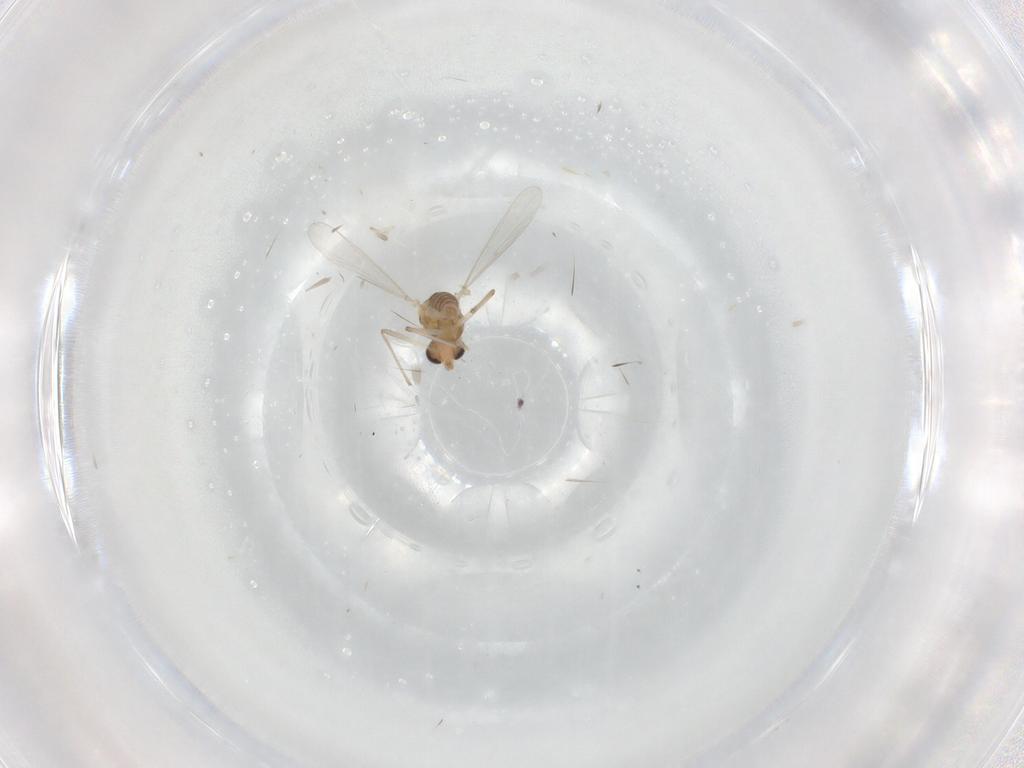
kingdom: Animalia
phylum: Arthropoda
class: Insecta
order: Diptera
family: Chironomidae
